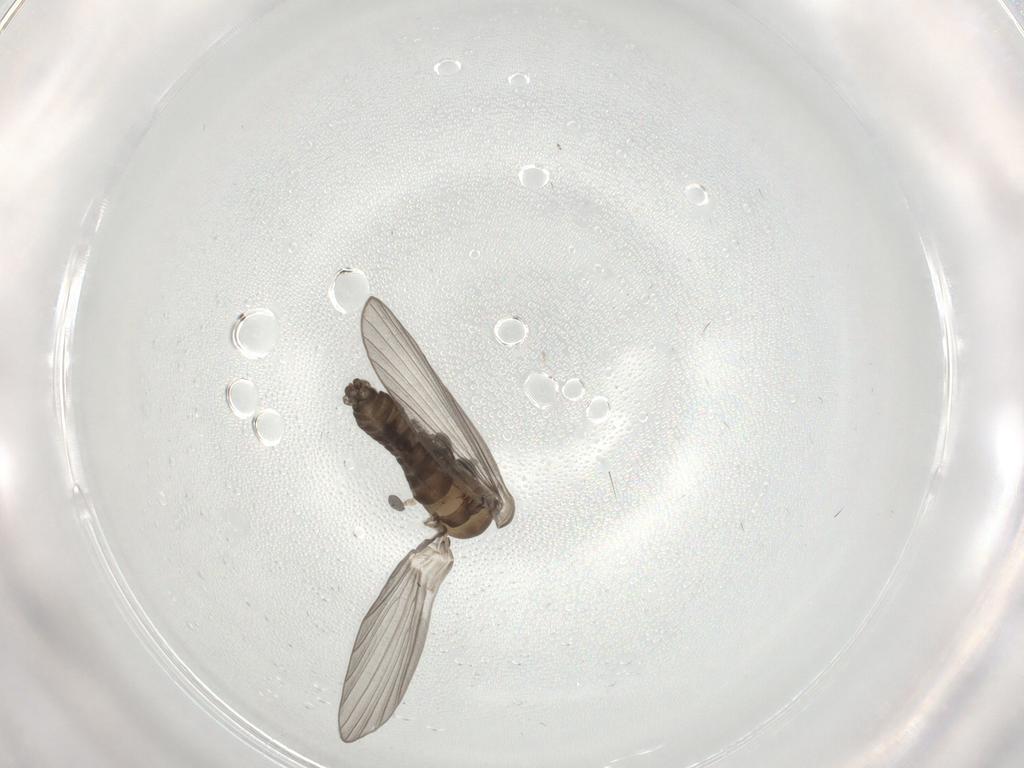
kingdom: Animalia
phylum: Arthropoda
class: Insecta
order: Diptera
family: Chironomidae
